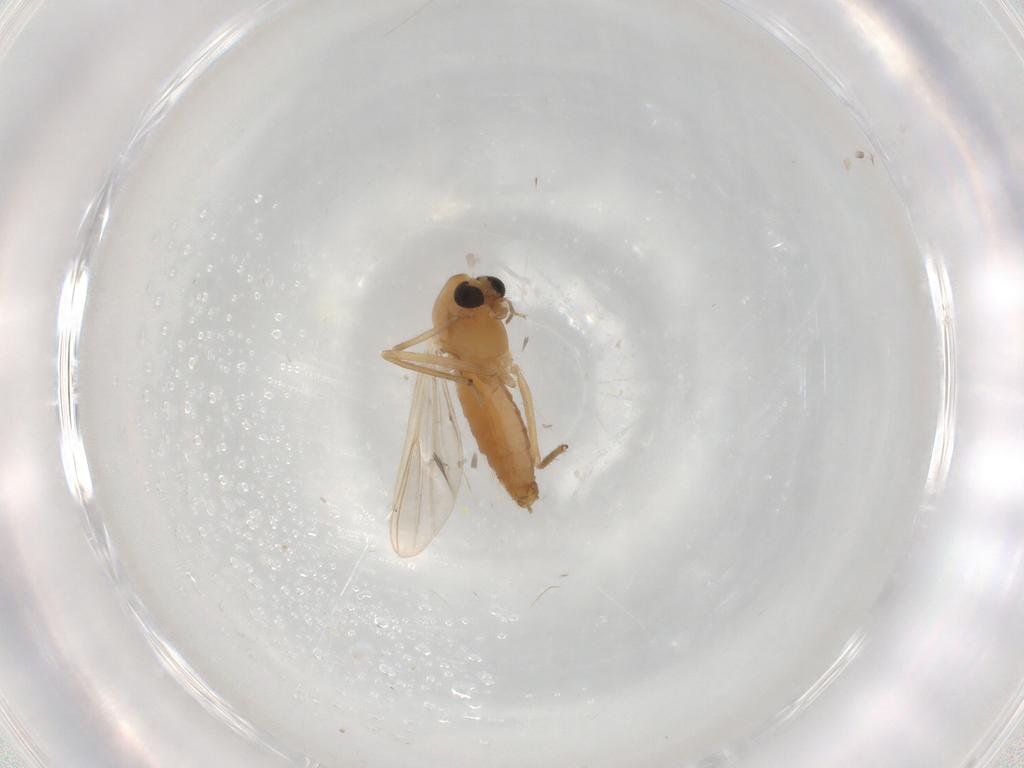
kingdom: Animalia
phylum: Arthropoda
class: Insecta
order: Diptera
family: Chironomidae
